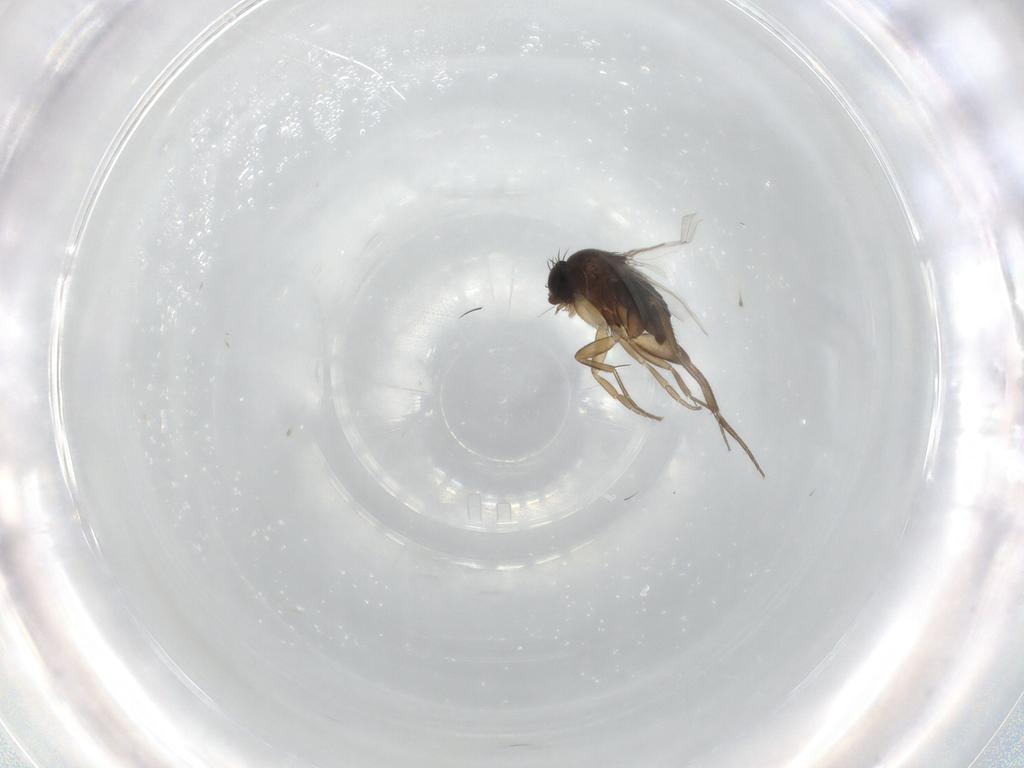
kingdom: Animalia
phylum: Arthropoda
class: Insecta
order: Diptera
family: Phoridae
